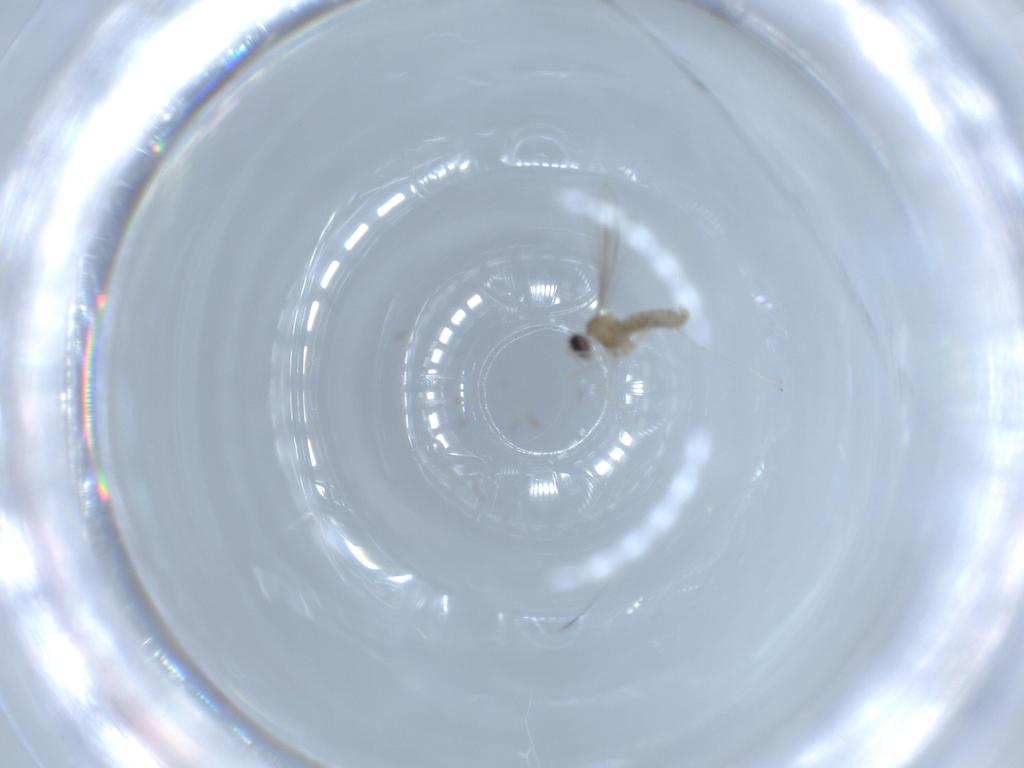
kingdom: Animalia
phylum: Arthropoda
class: Insecta
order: Diptera
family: Cecidomyiidae
